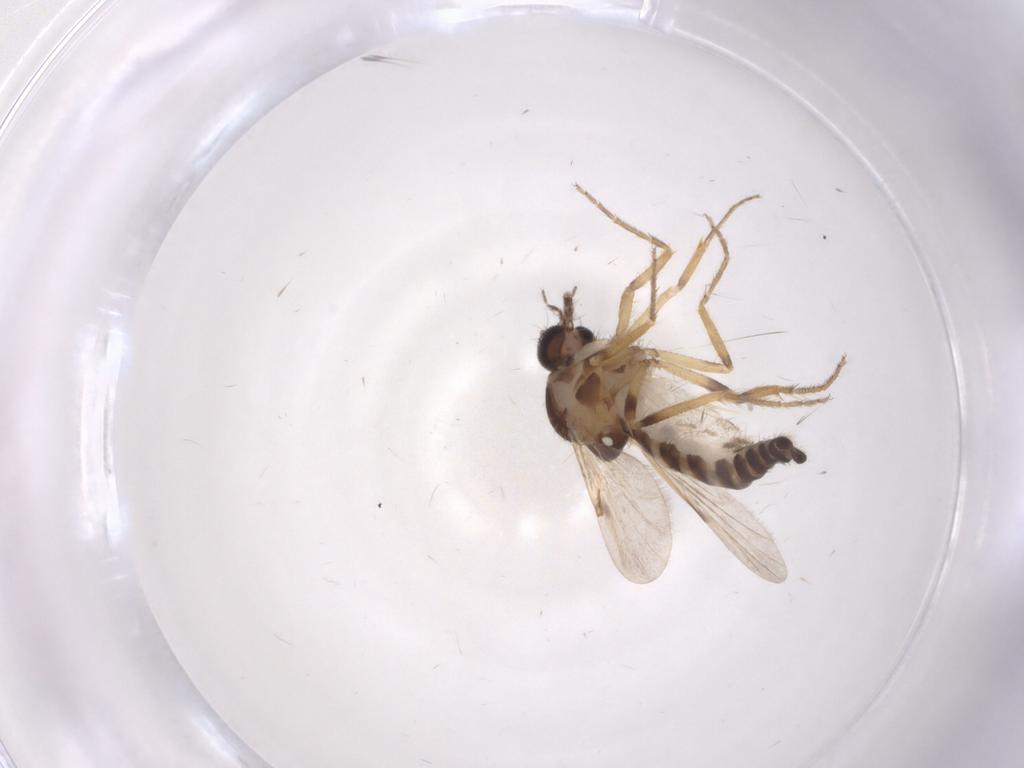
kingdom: Animalia
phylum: Arthropoda
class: Insecta
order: Diptera
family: Ceratopogonidae
